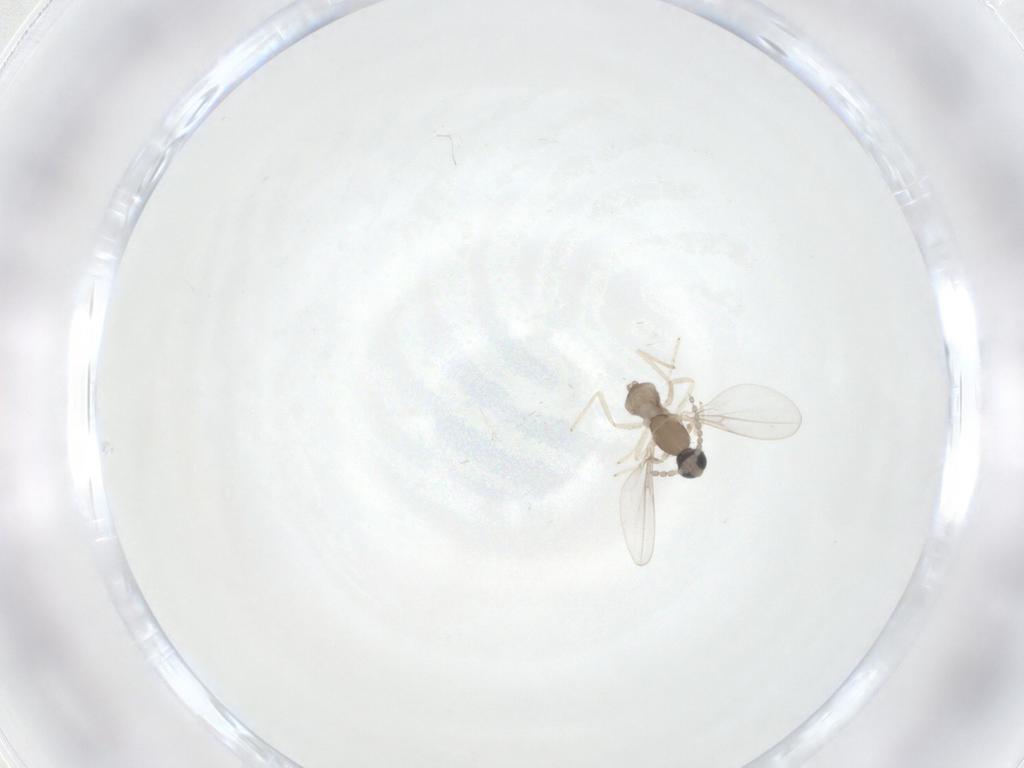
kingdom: Animalia
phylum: Arthropoda
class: Insecta
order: Diptera
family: Cecidomyiidae
